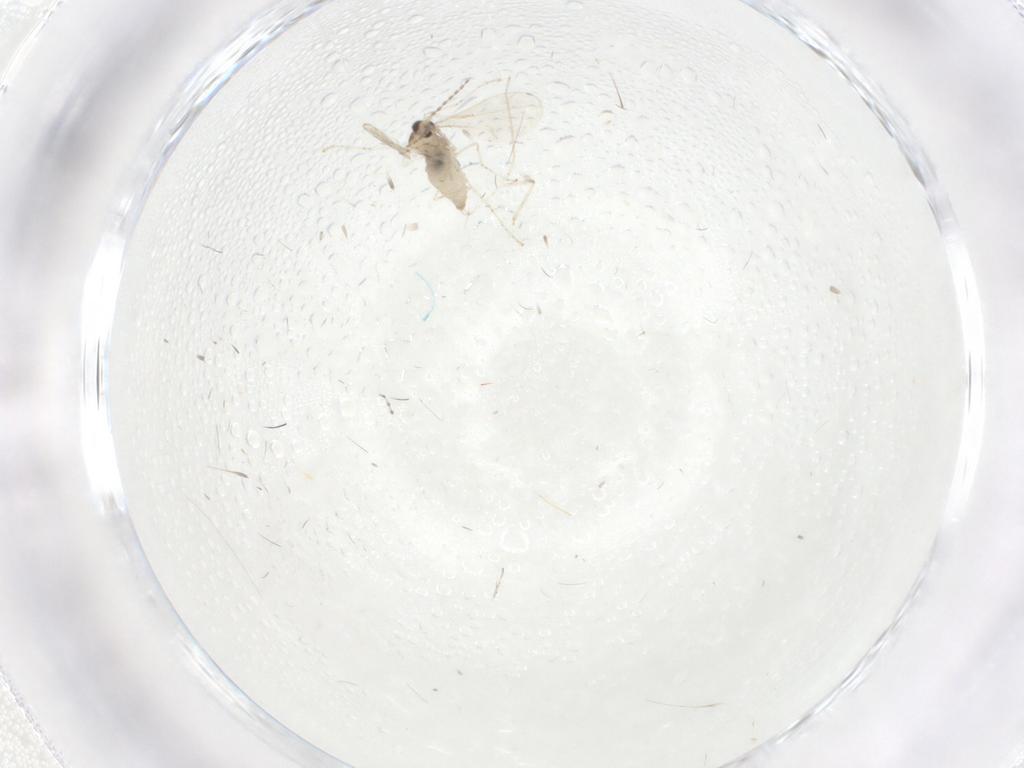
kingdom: Animalia
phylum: Arthropoda
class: Insecta
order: Diptera
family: Cecidomyiidae
